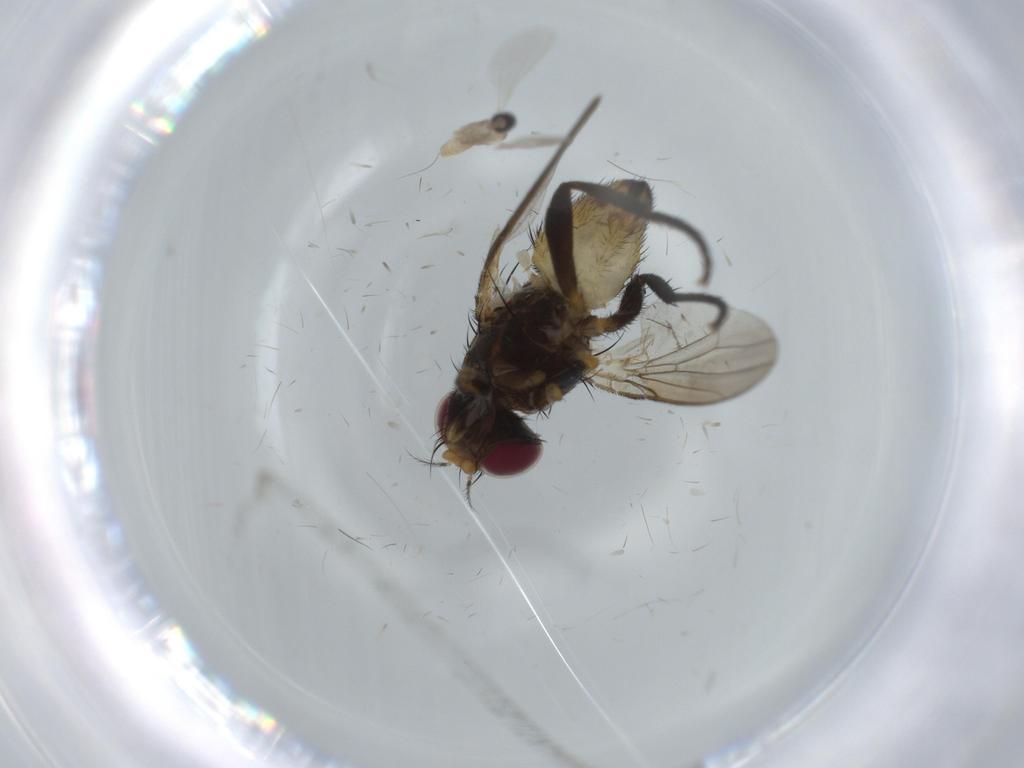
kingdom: Animalia
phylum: Arthropoda
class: Insecta
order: Diptera
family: Anthomyiidae
